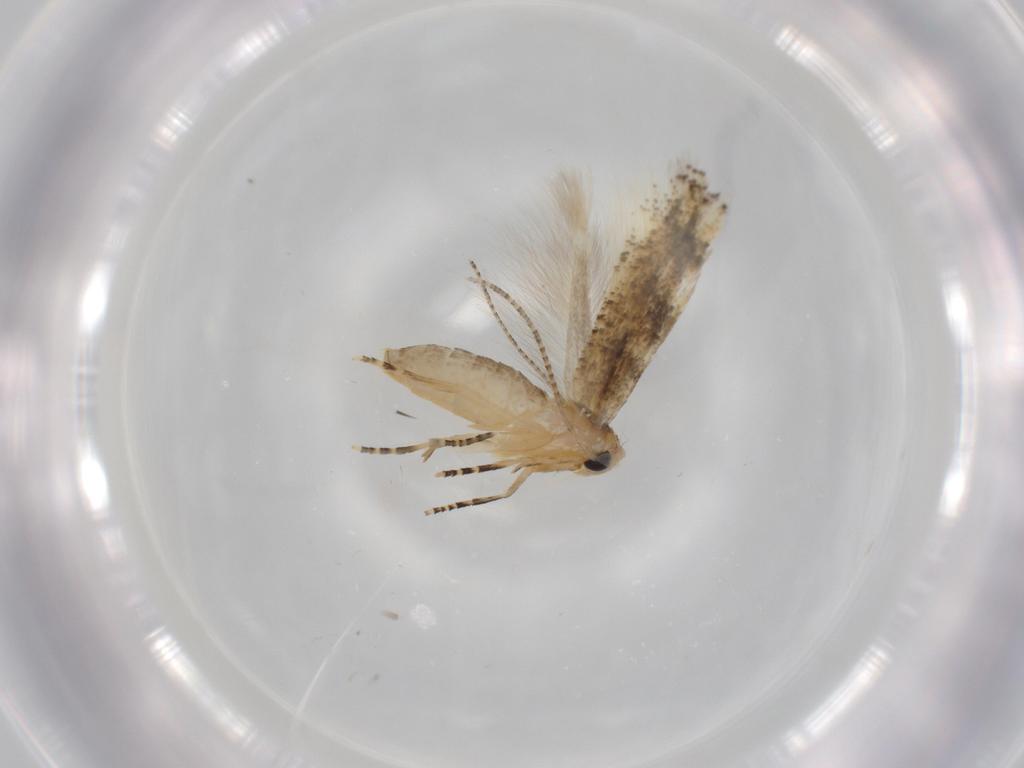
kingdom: Animalia
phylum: Arthropoda
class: Insecta
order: Lepidoptera
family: Bucculatricidae
